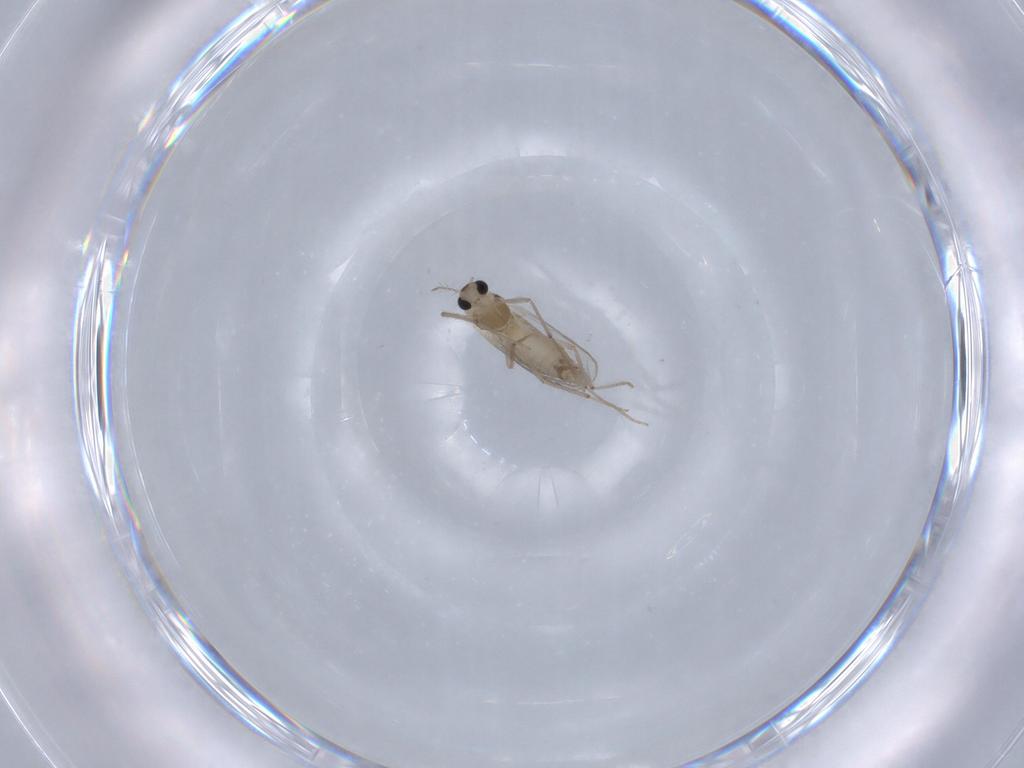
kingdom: Animalia
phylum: Arthropoda
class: Insecta
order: Diptera
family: Chironomidae
